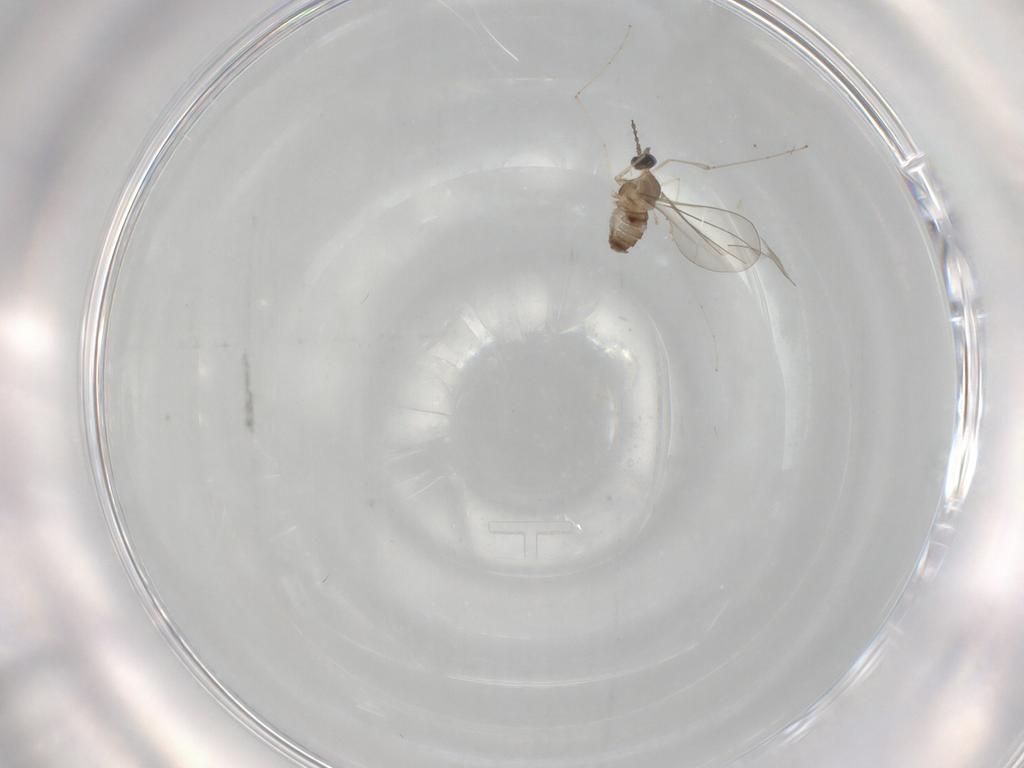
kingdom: Animalia
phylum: Arthropoda
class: Insecta
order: Diptera
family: Cecidomyiidae
